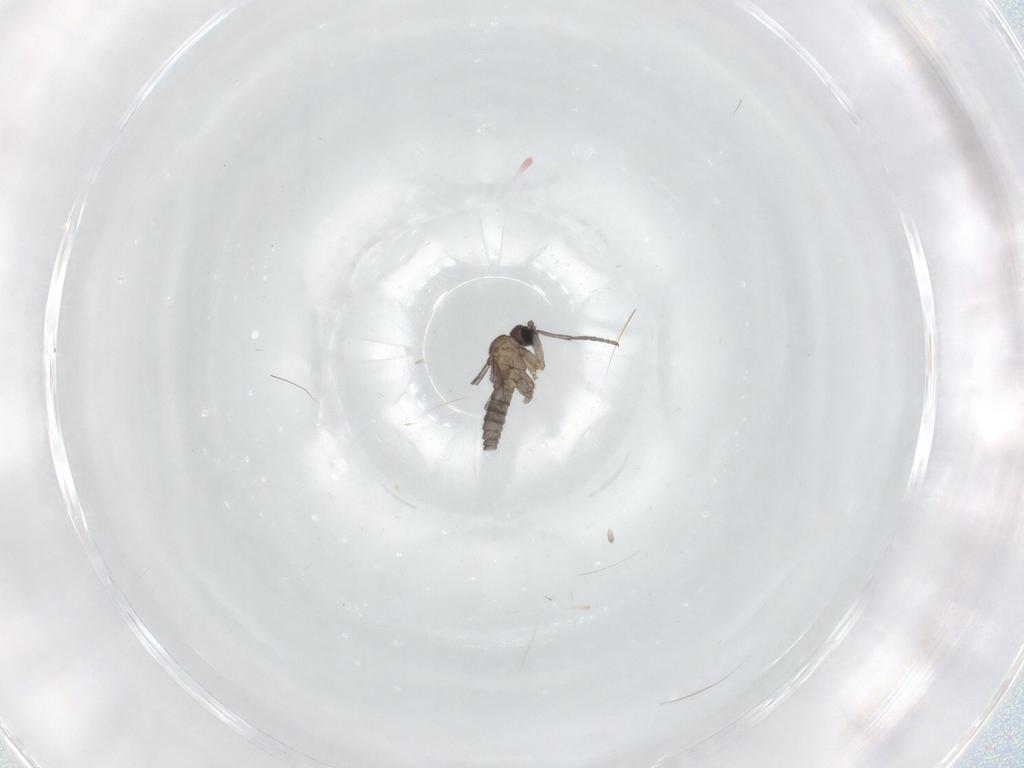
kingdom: Animalia
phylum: Arthropoda
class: Insecta
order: Diptera
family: Sciaridae
